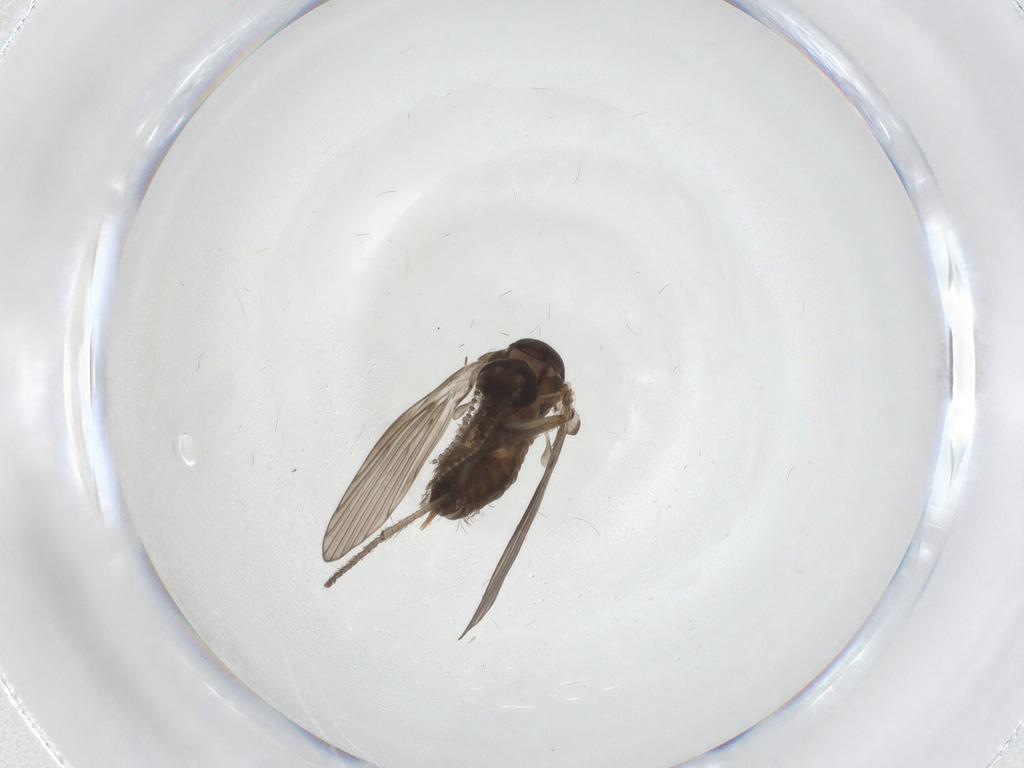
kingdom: Animalia
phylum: Arthropoda
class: Insecta
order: Diptera
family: Psychodidae
